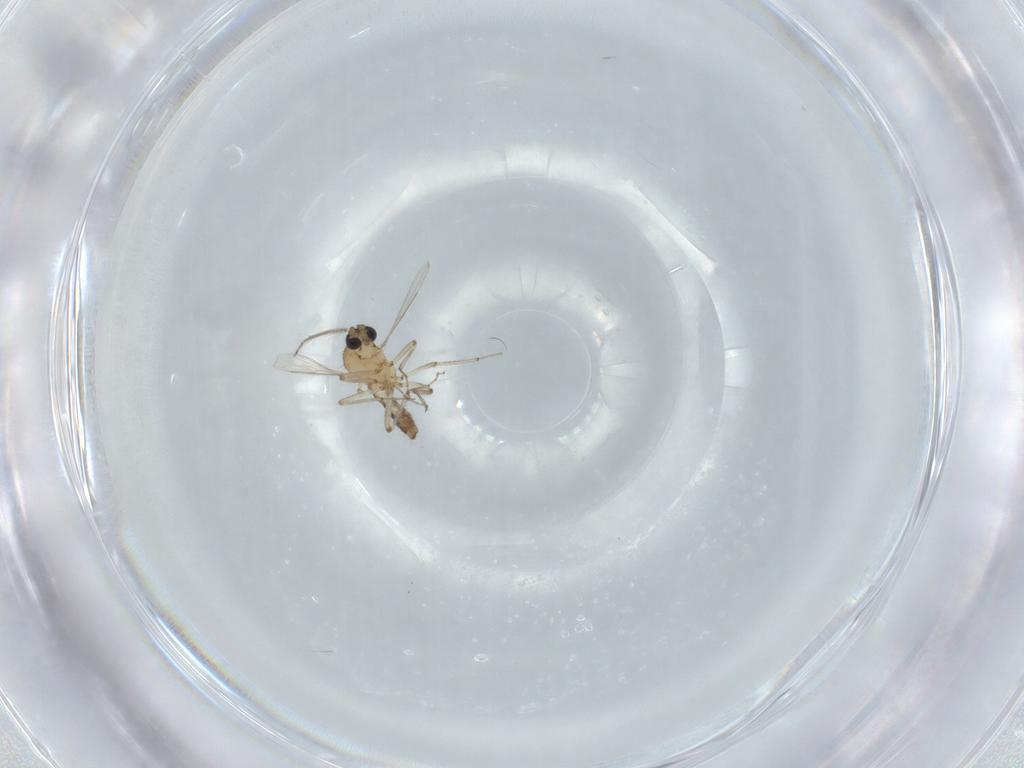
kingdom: Animalia
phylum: Arthropoda
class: Insecta
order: Diptera
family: Ceratopogonidae
